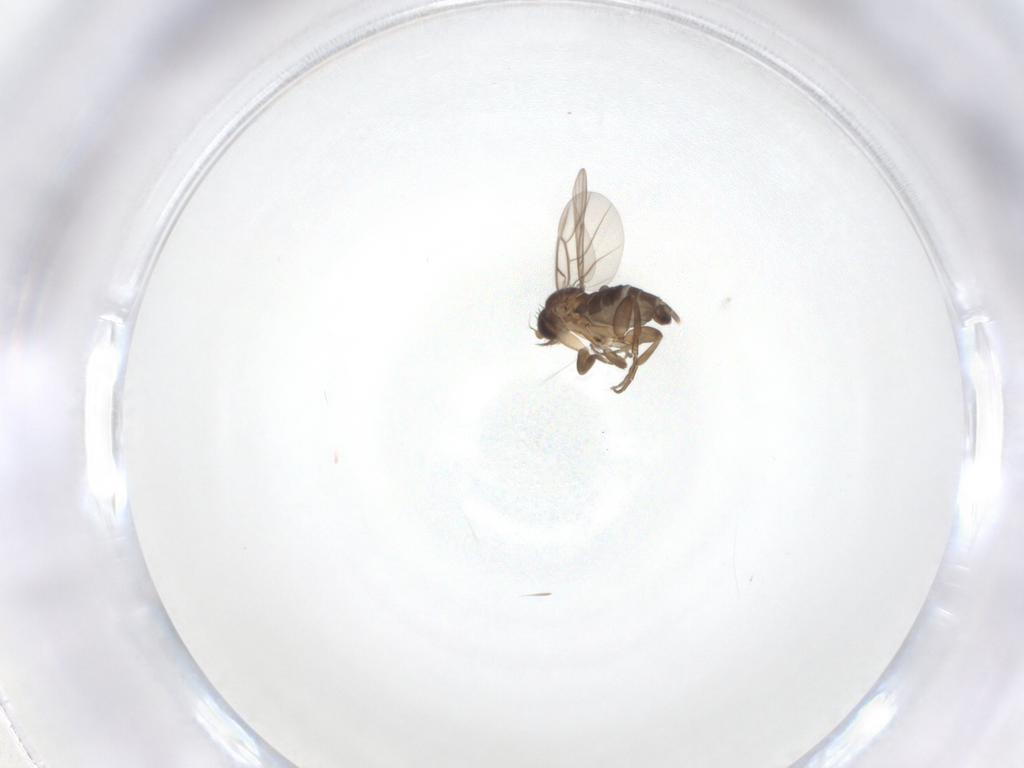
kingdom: Animalia
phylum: Arthropoda
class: Insecta
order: Diptera
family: Phoridae
